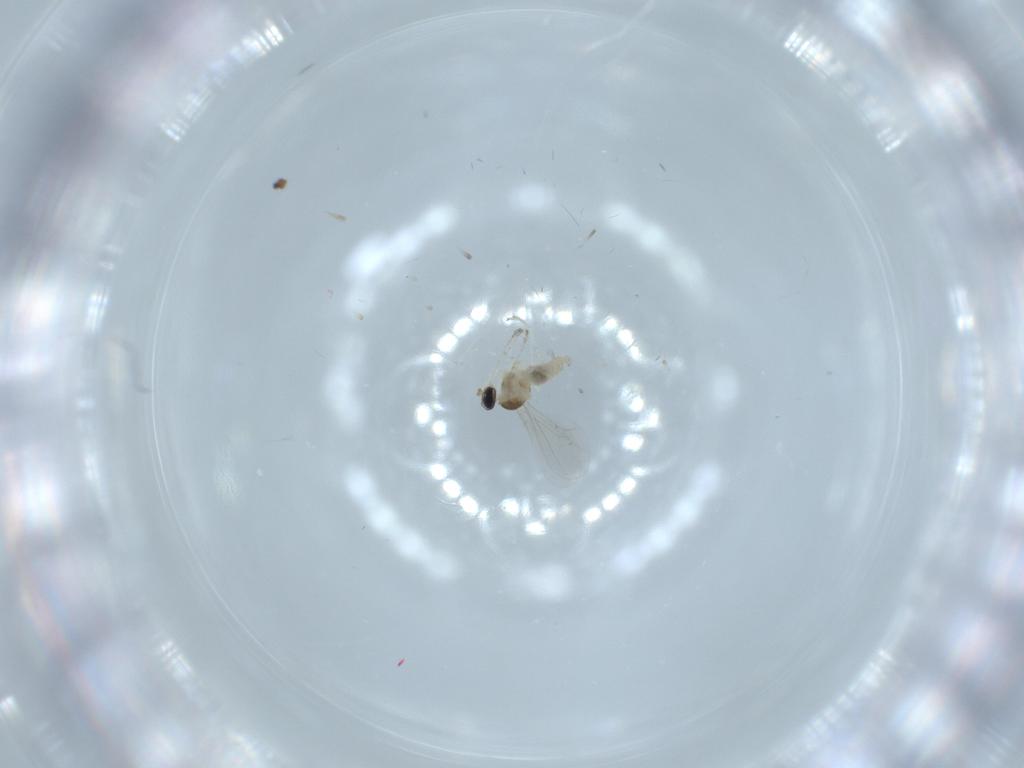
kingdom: Animalia
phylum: Arthropoda
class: Insecta
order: Diptera
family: Cecidomyiidae
